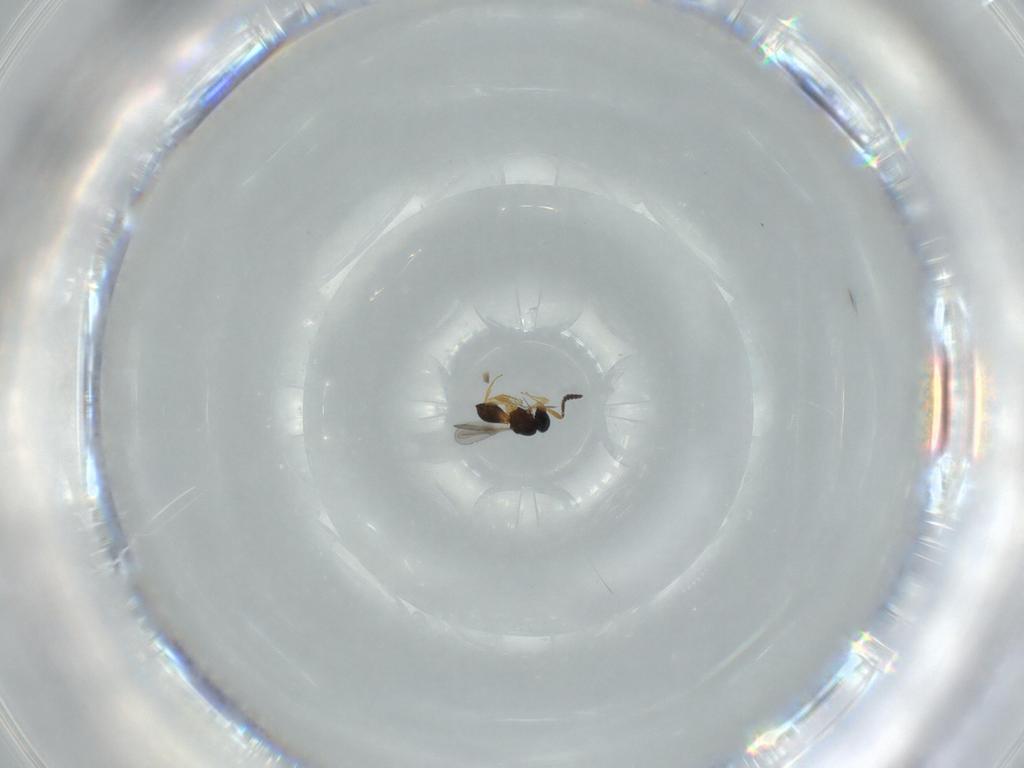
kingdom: Animalia
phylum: Arthropoda
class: Insecta
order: Hymenoptera
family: Scelionidae
